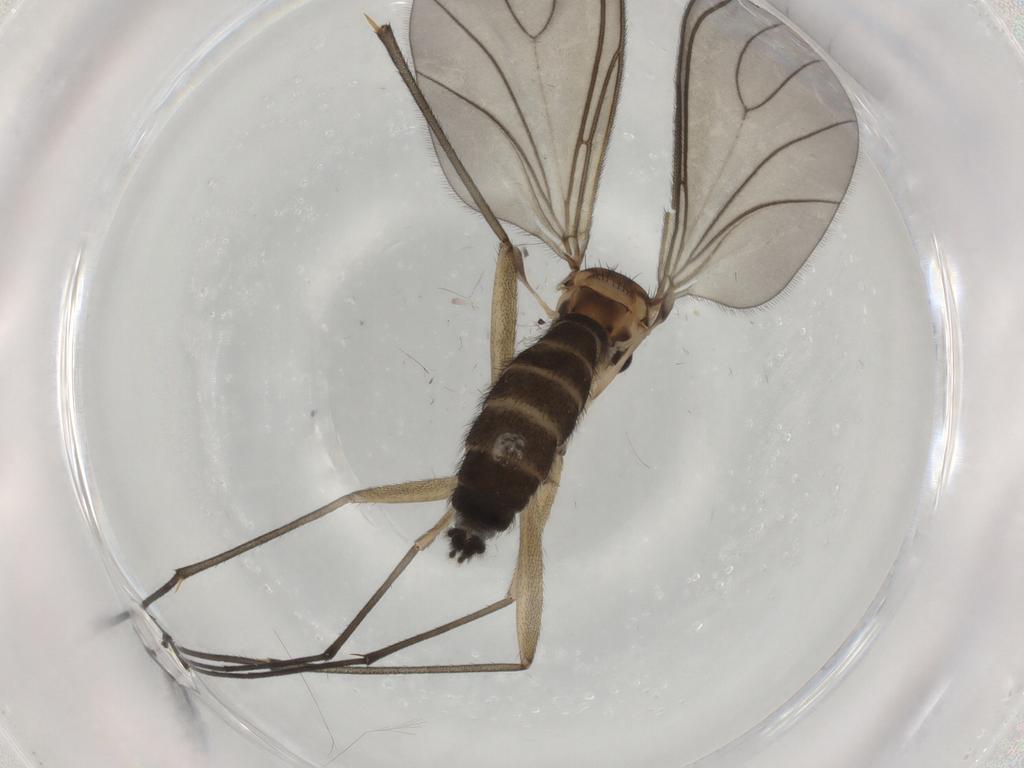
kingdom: Animalia
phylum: Arthropoda
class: Insecta
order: Diptera
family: Sciaridae
